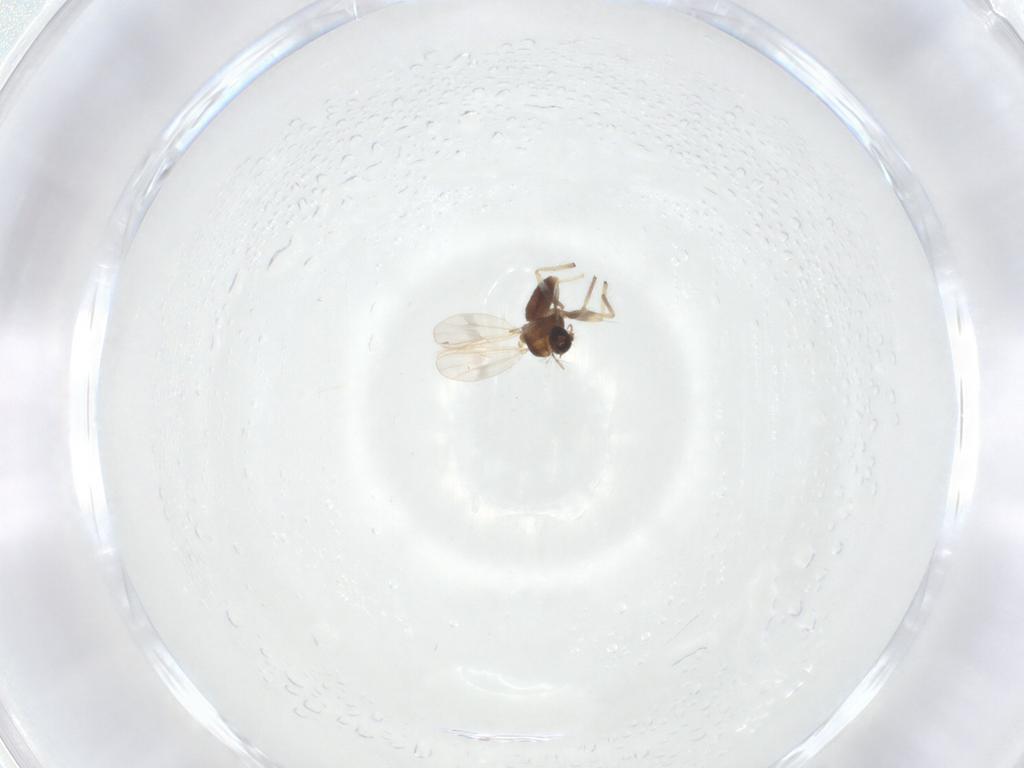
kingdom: Animalia
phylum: Arthropoda
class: Insecta
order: Diptera
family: Chironomidae
